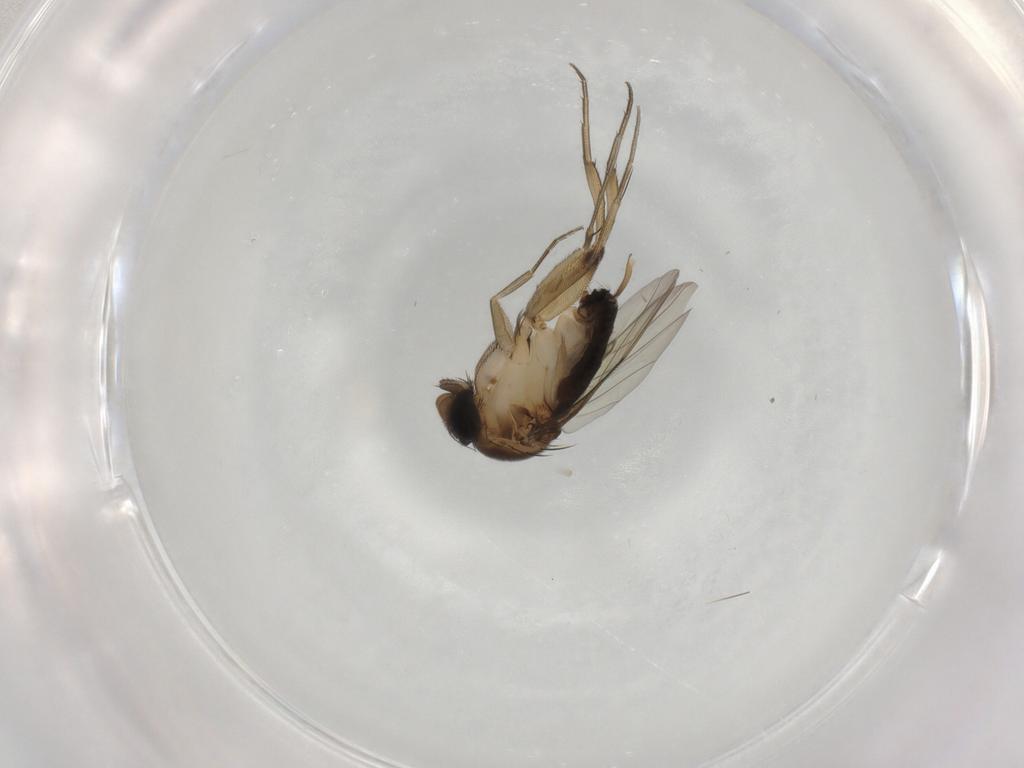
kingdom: Animalia
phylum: Arthropoda
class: Insecta
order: Diptera
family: Phoridae
